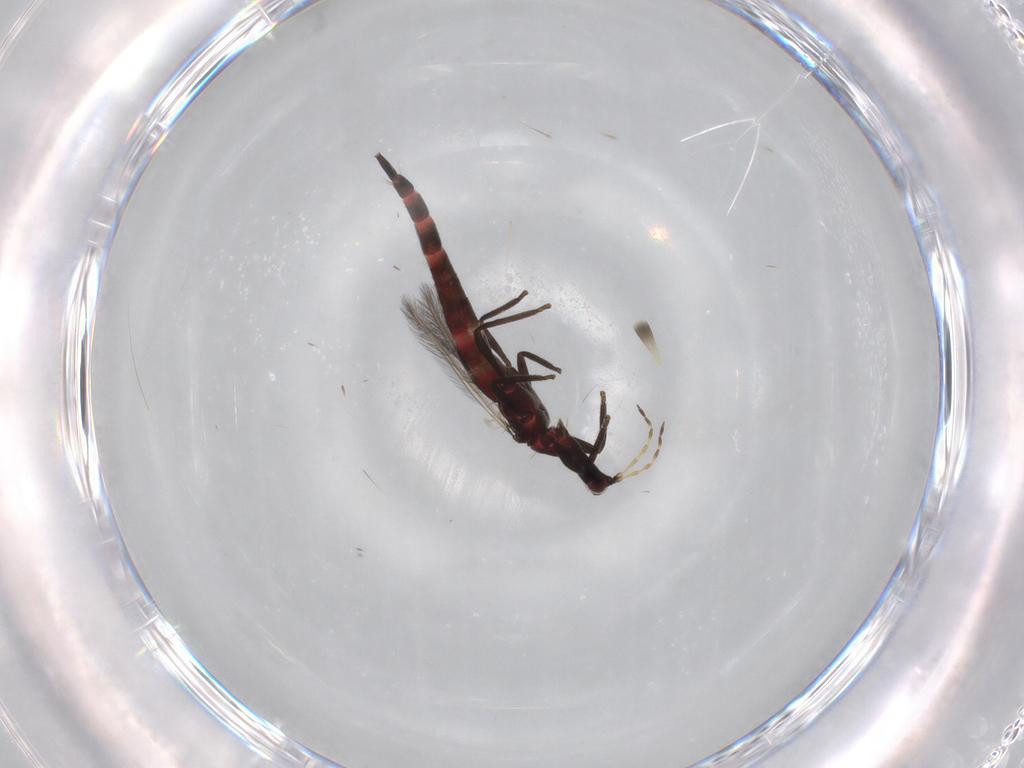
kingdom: Animalia
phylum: Arthropoda
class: Insecta
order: Thysanoptera
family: Phlaeothripidae
